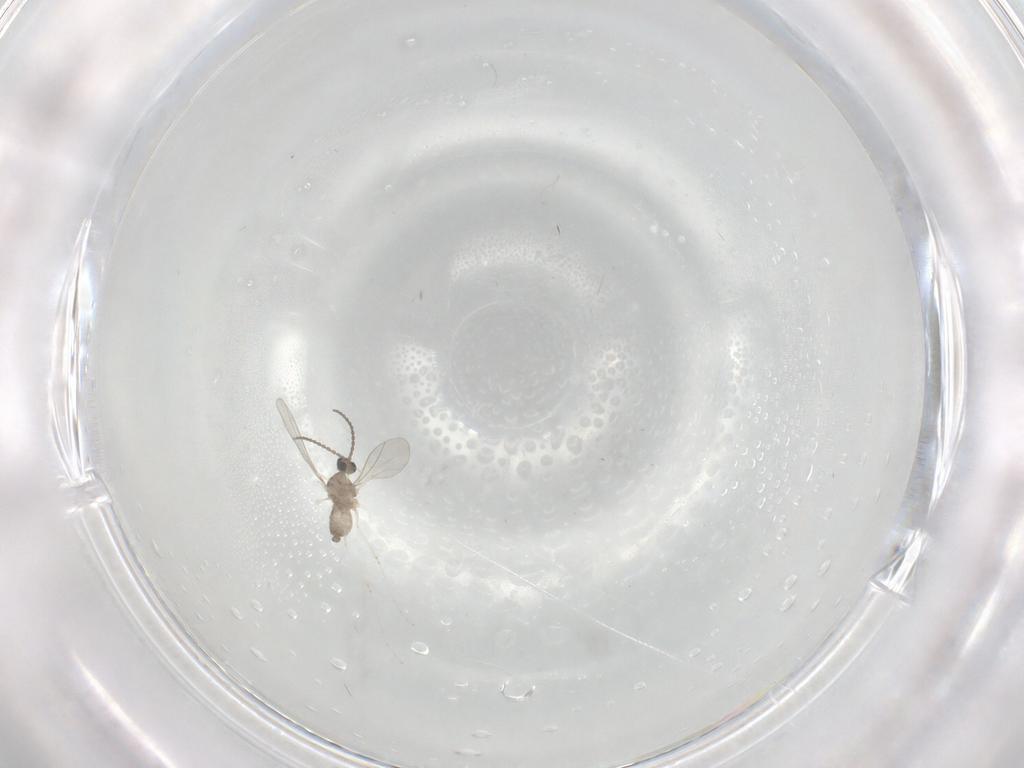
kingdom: Animalia
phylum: Arthropoda
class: Insecta
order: Diptera
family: Cecidomyiidae
